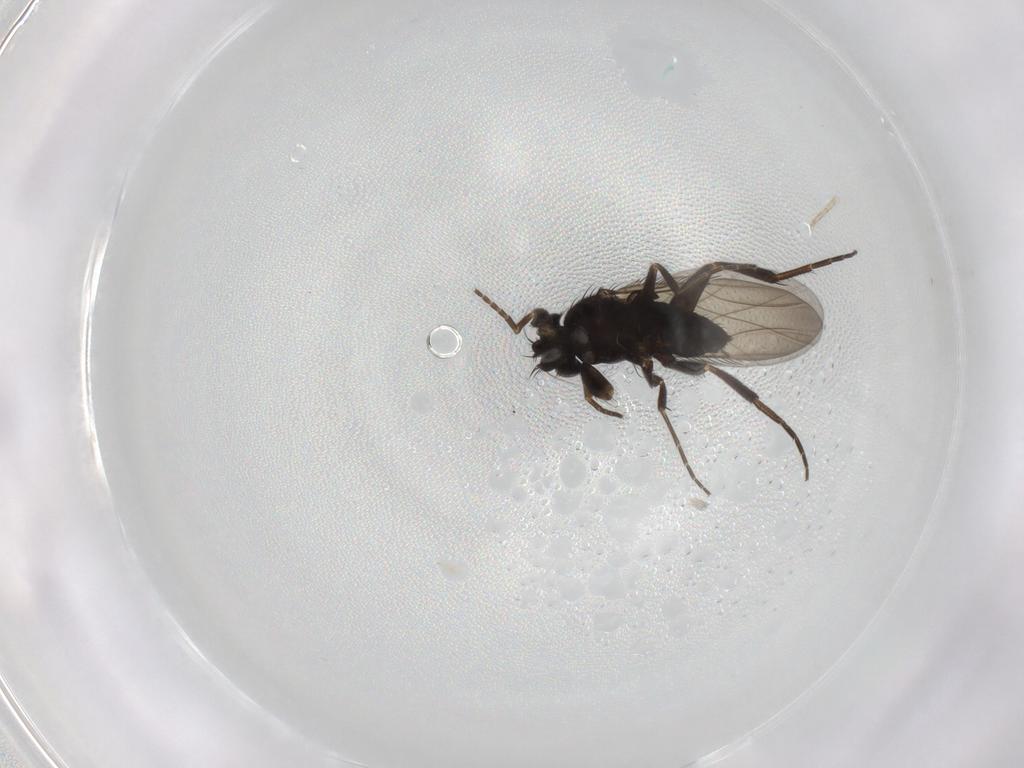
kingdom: Animalia
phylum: Arthropoda
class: Insecta
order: Diptera
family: Phoridae
